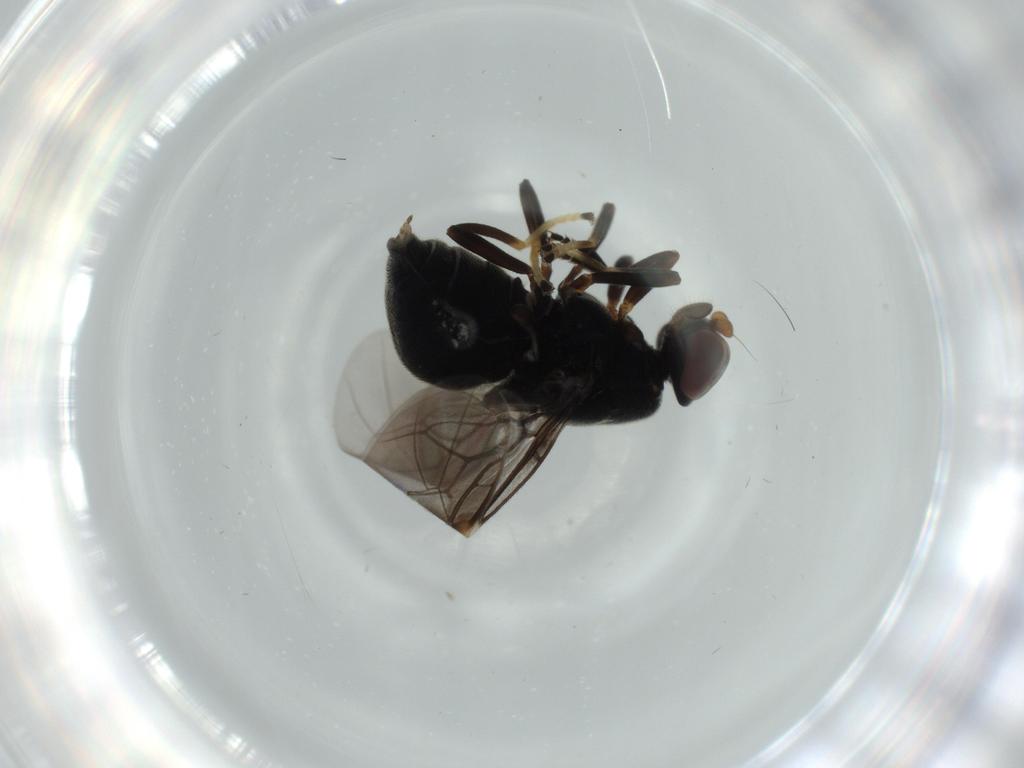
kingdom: Animalia
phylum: Arthropoda
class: Insecta
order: Diptera
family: Stratiomyidae
